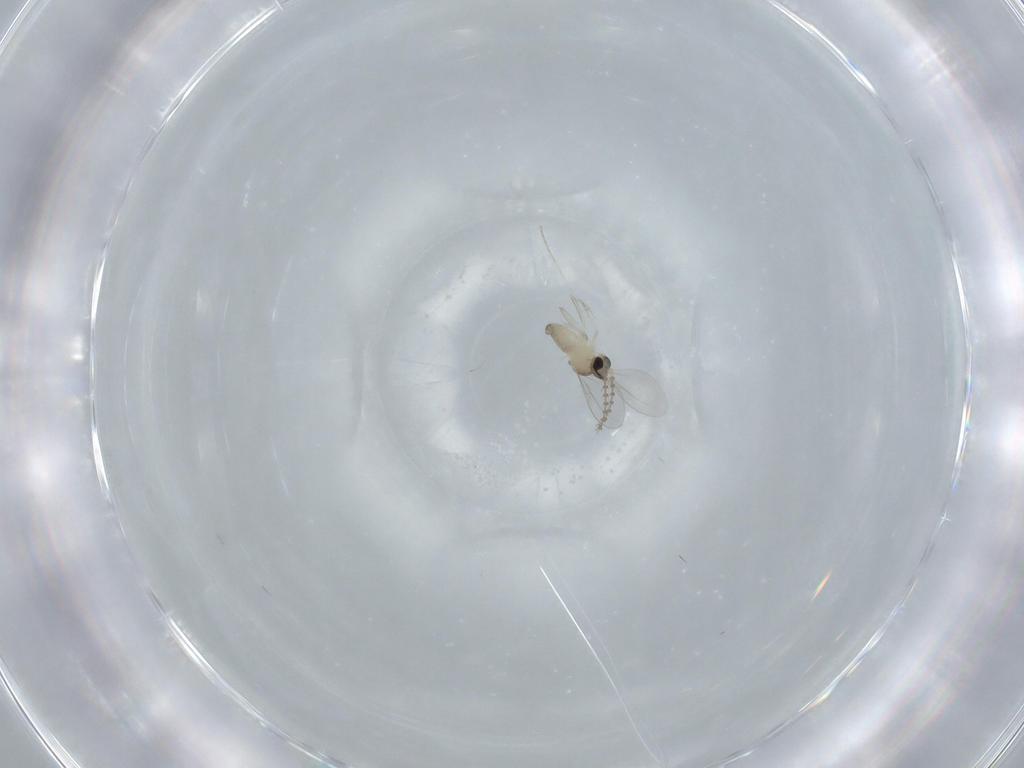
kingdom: Animalia
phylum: Arthropoda
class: Insecta
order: Diptera
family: Cecidomyiidae
